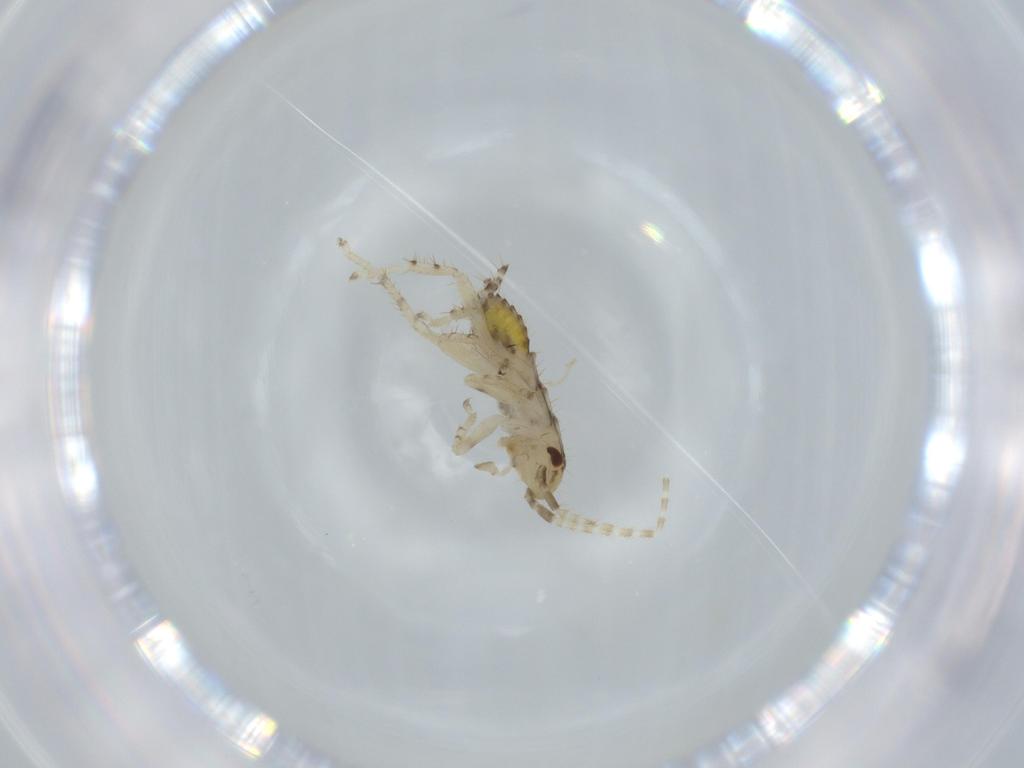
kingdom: Animalia
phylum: Arthropoda
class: Insecta
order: Blattodea
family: Ectobiidae
